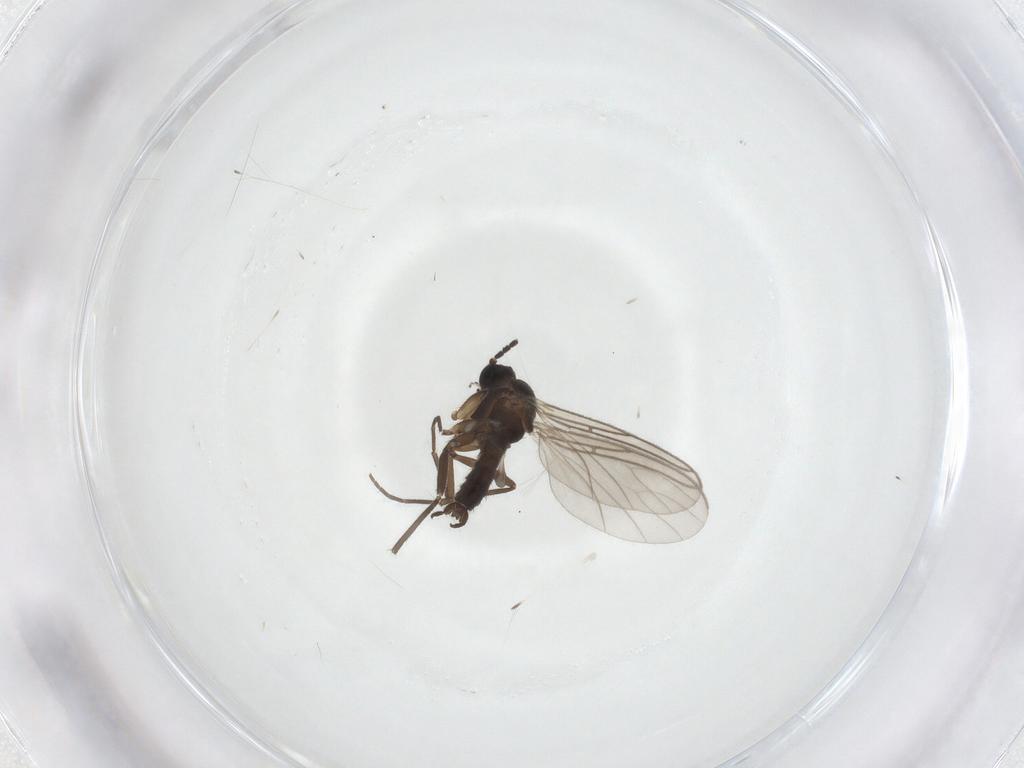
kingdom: Animalia
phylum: Arthropoda
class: Insecta
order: Diptera
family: Sciaridae
